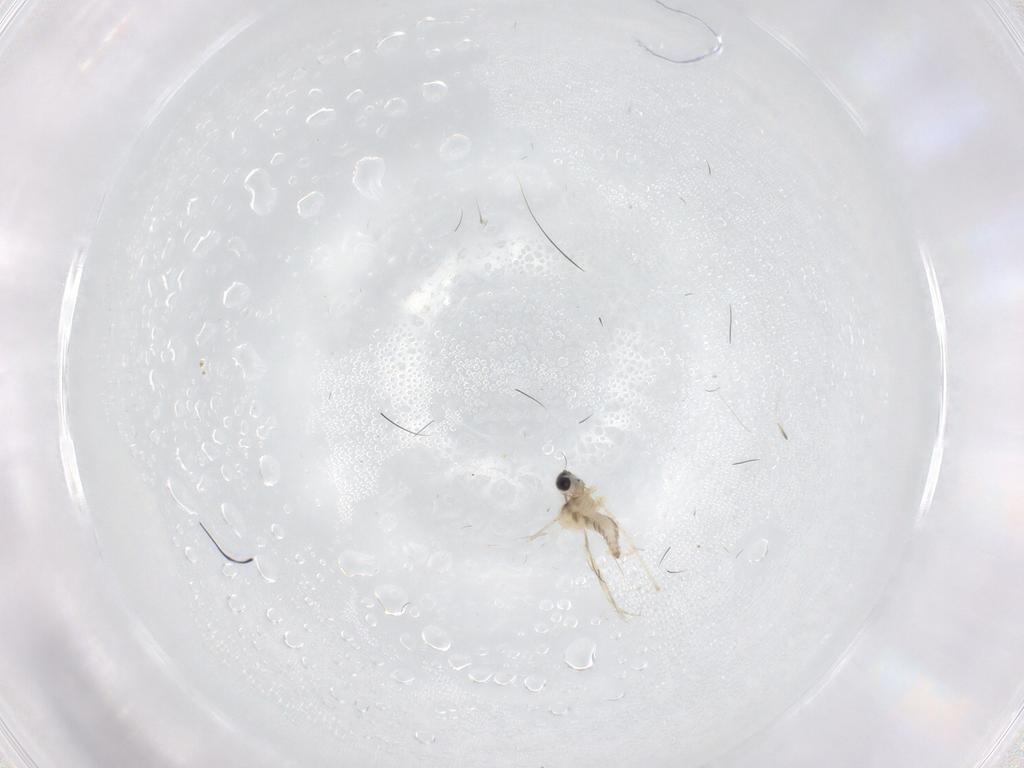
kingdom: Animalia
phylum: Arthropoda
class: Insecta
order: Diptera
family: Cecidomyiidae
